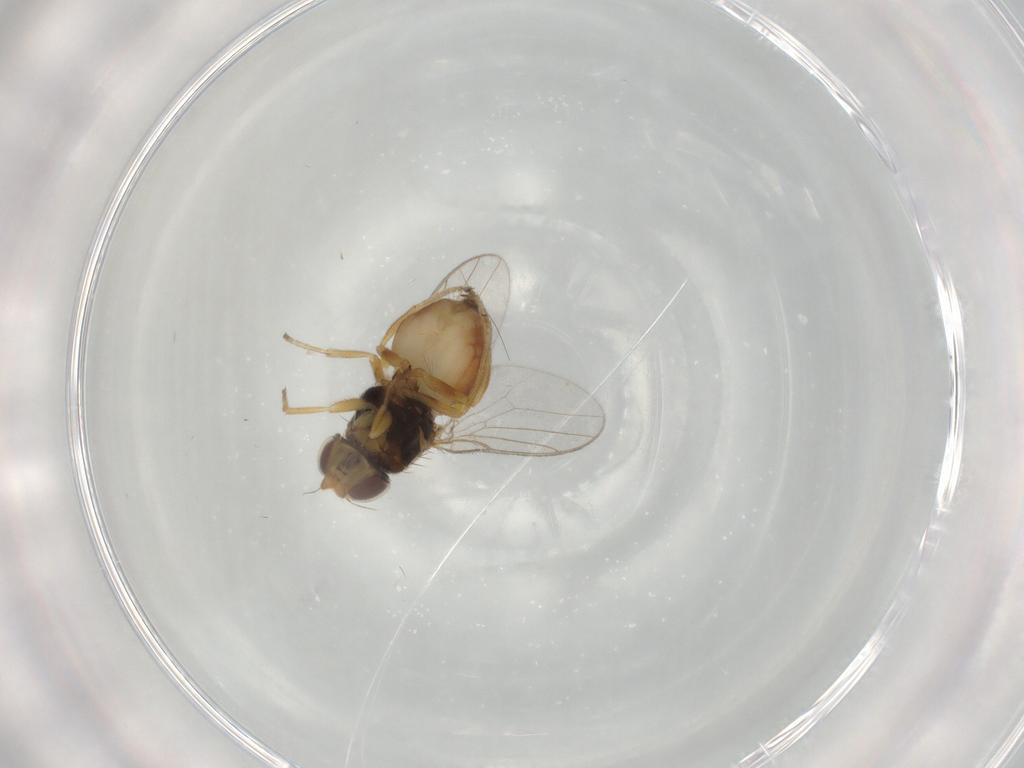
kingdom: Animalia
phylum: Arthropoda
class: Insecta
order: Diptera
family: Chloropidae
